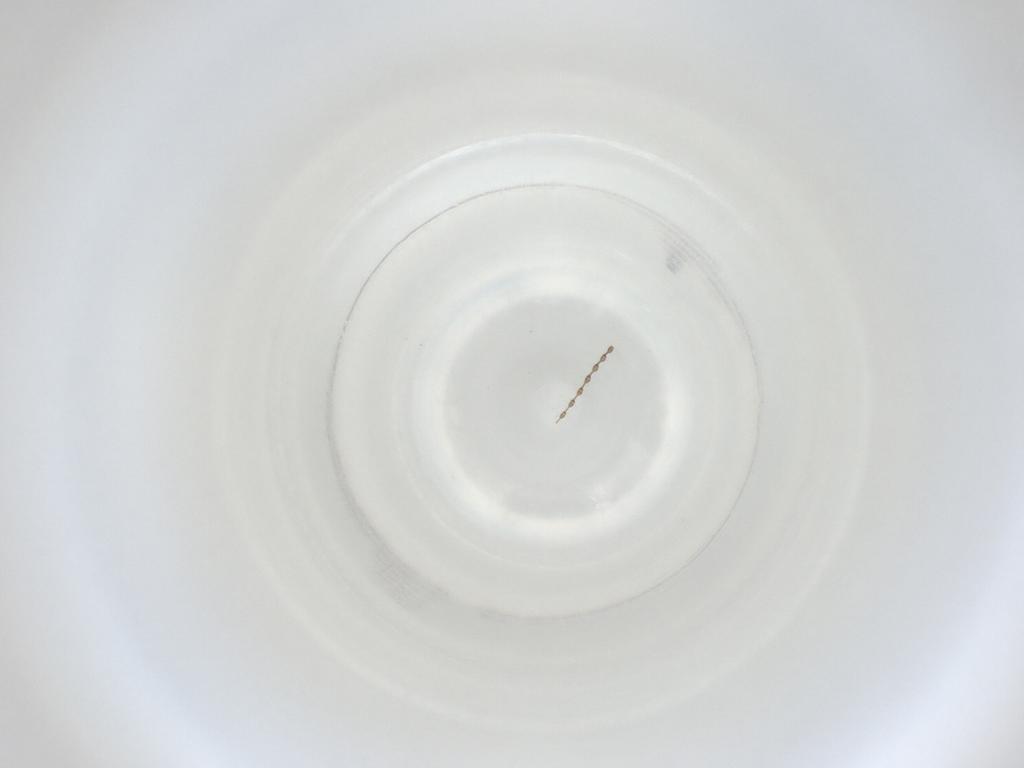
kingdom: Animalia
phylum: Arthropoda
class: Insecta
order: Diptera
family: Cecidomyiidae
